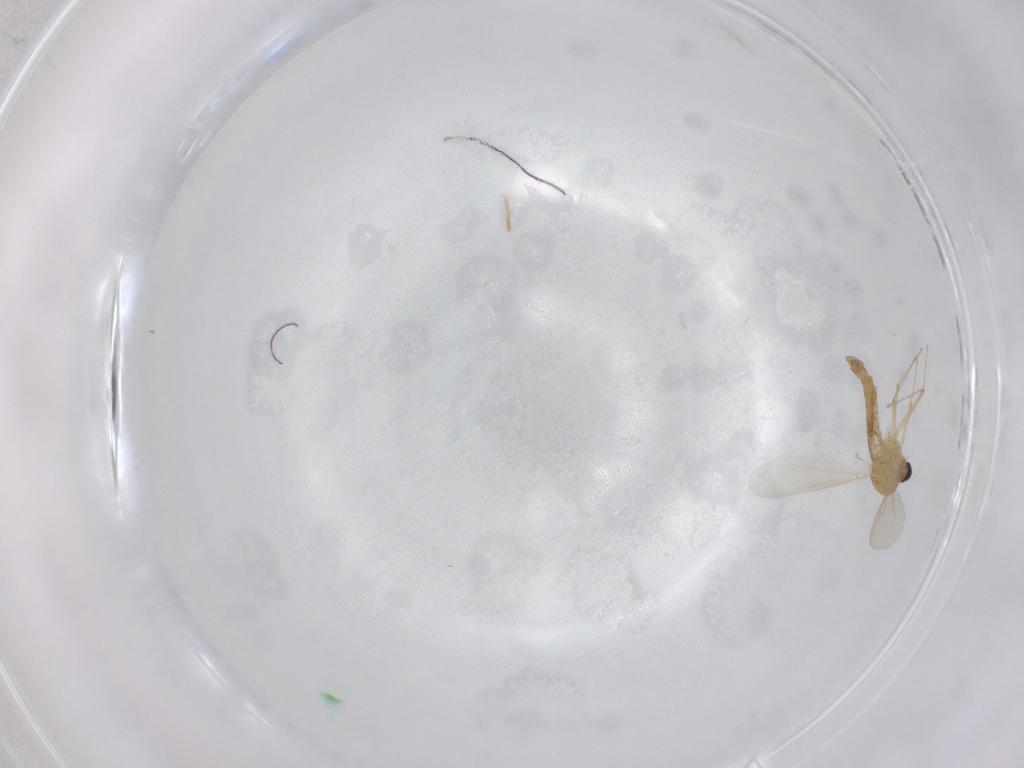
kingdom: Animalia
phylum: Arthropoda
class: Insecta
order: Diptera
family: Chironomidae
